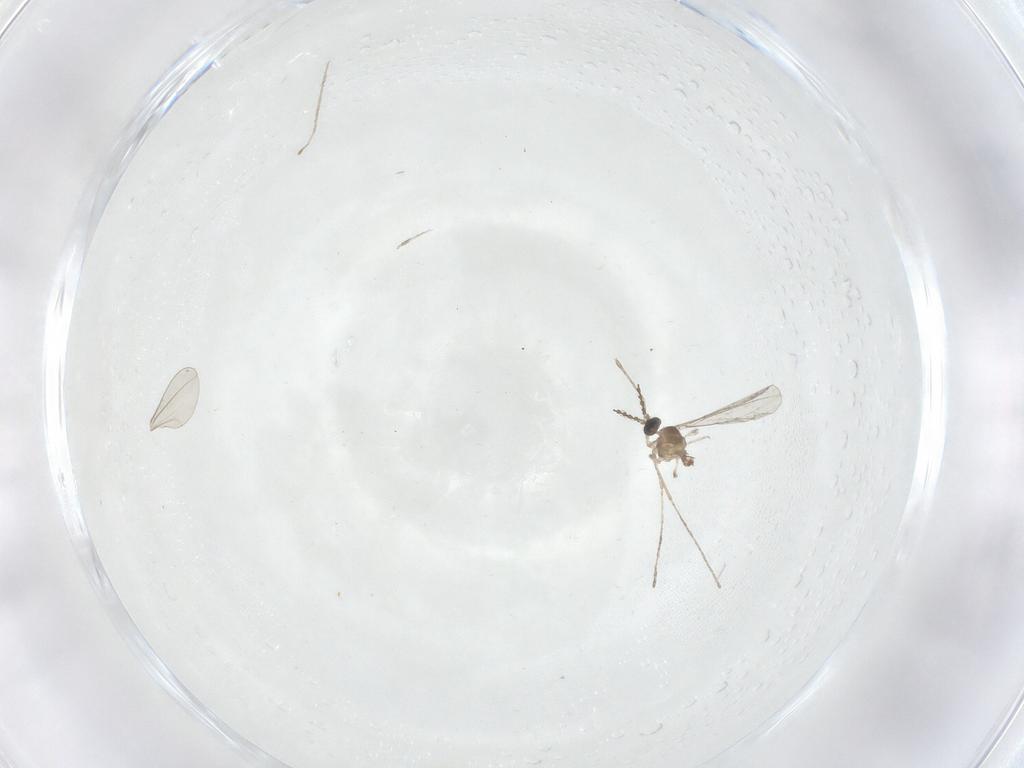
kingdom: Animalia
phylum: Arthropoda
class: Insecta
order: Diptera
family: Cecidomyiidae
